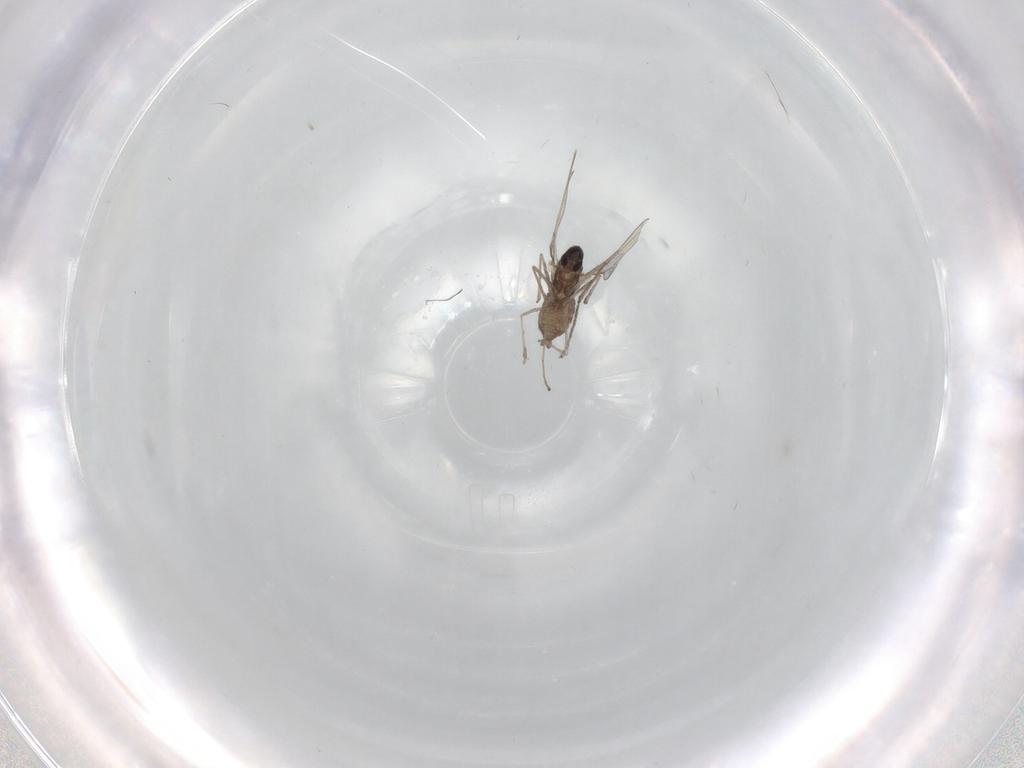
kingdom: Animalia
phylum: Arthropoda
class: Insecta
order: Diptera
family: Cecidomyiidae
